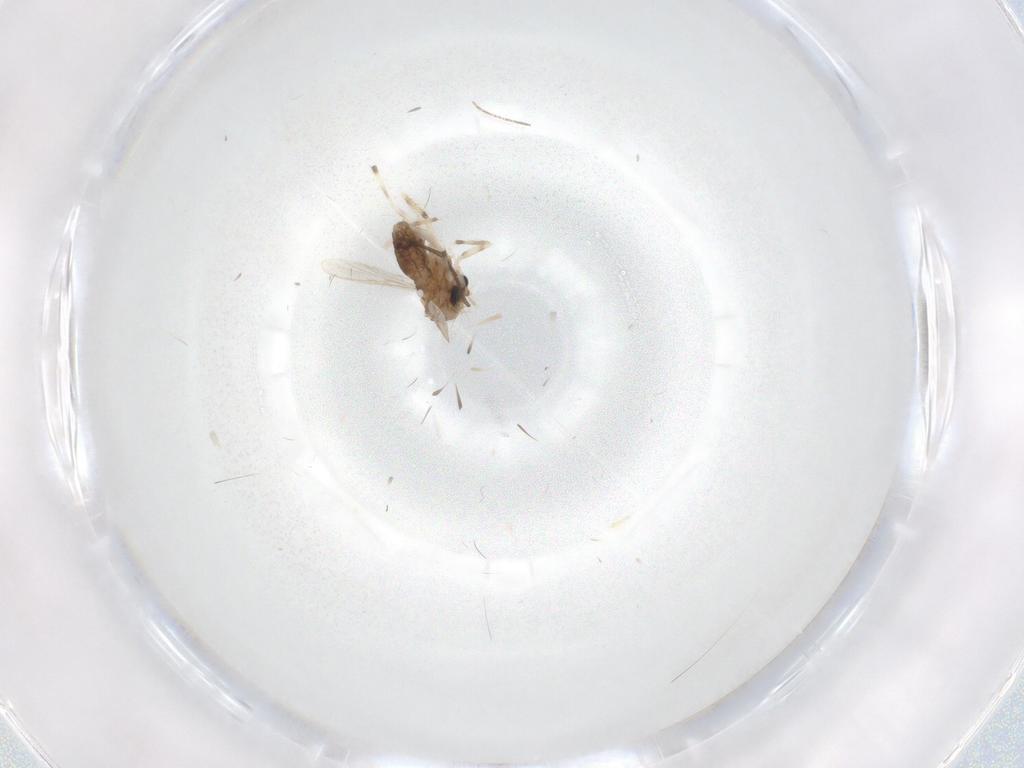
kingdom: Animalia
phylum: Arthropoda
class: Insecta
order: Diptera
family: Chironomidae
